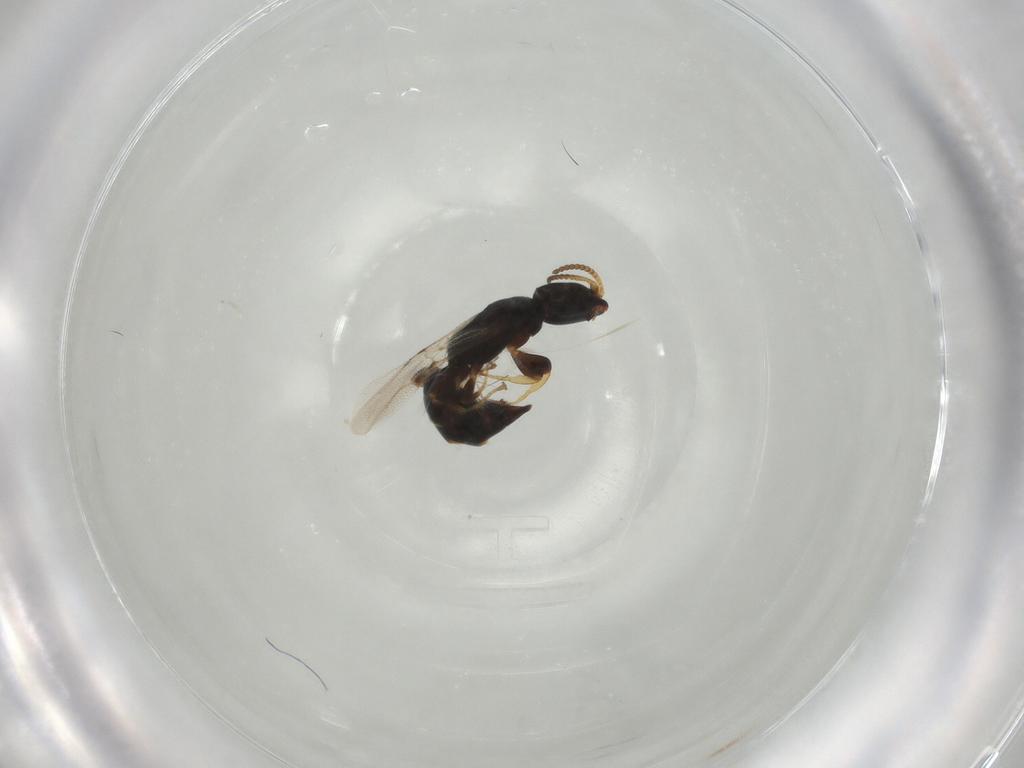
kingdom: Animalia
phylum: Arthropoda
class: Insecta
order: Hymenoptera
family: Bethylidae
